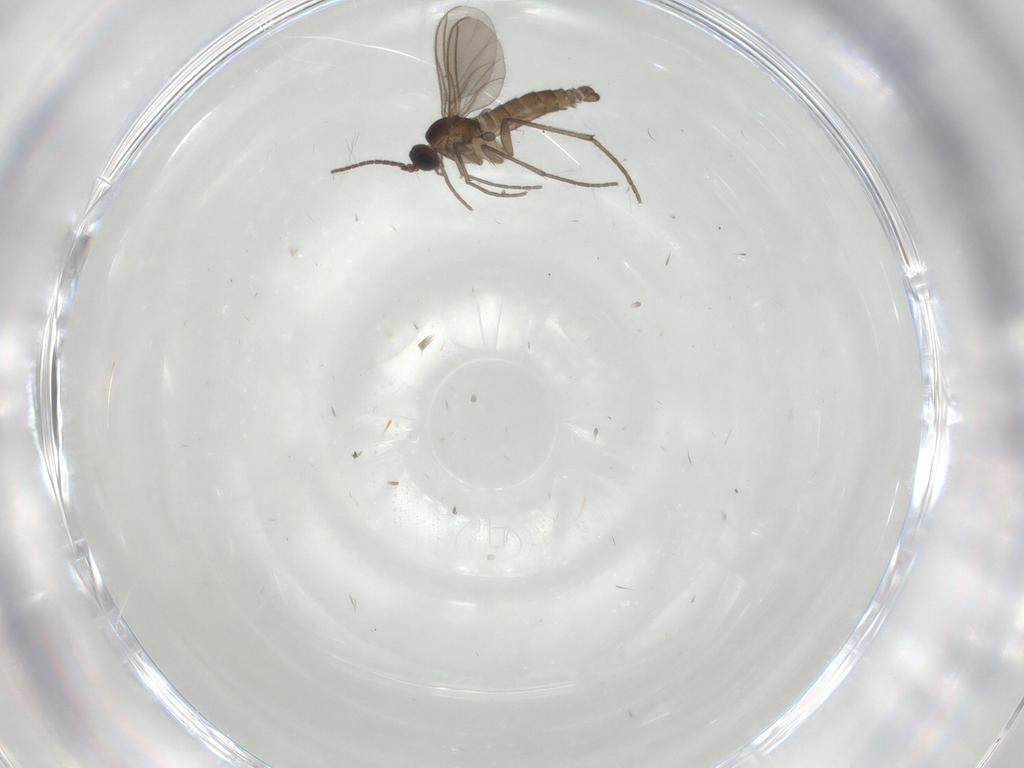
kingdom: Animalia
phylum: Arthropoda
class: Insecta
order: Diptera
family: Sciaridae
